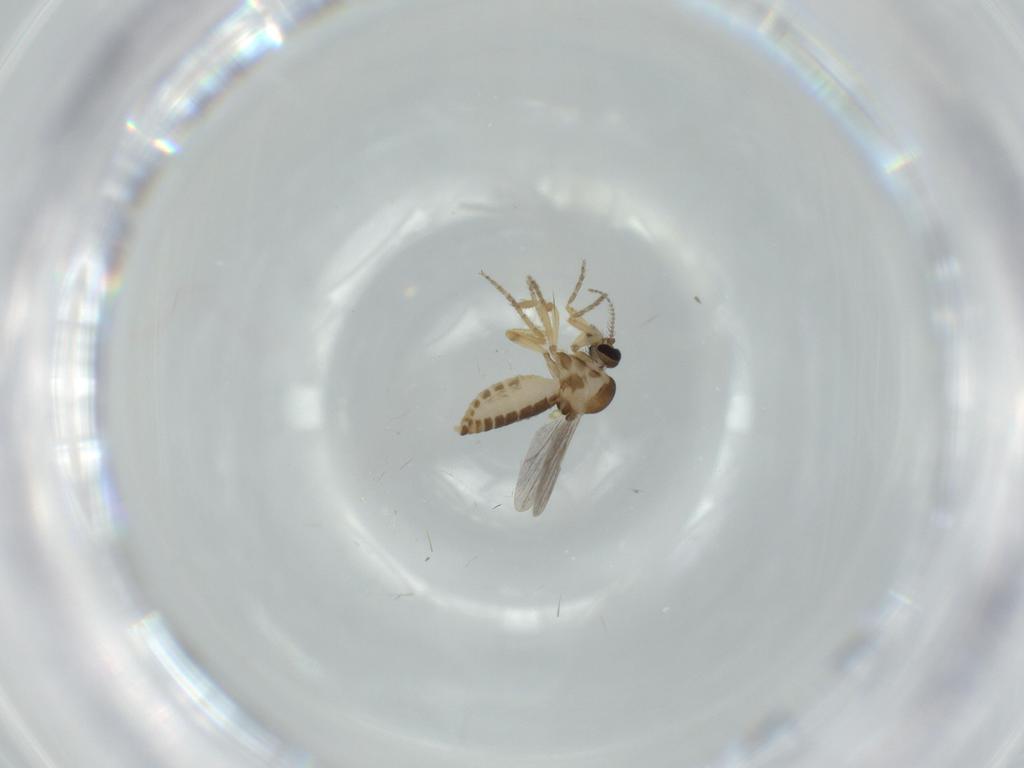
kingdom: Animalia
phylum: Arthropoda
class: Insecta
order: Diptera
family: Ceratopogonidae
